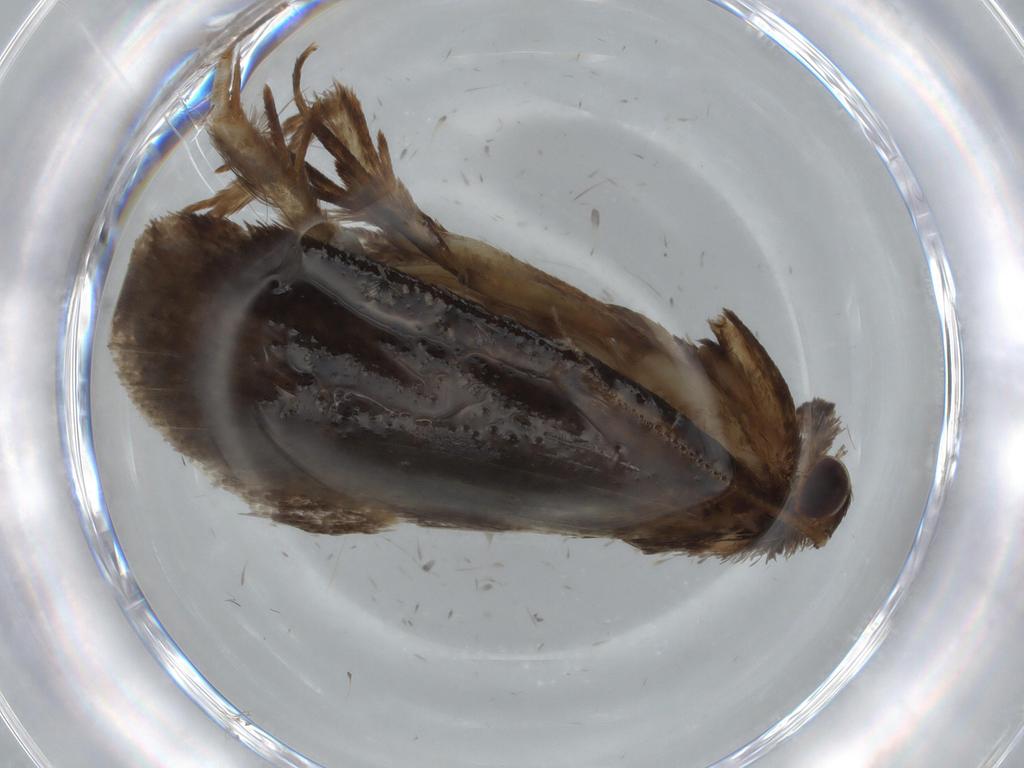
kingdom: Animalia
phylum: Arthropoda
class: Insecta
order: Lepidoptera
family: Tineidae
